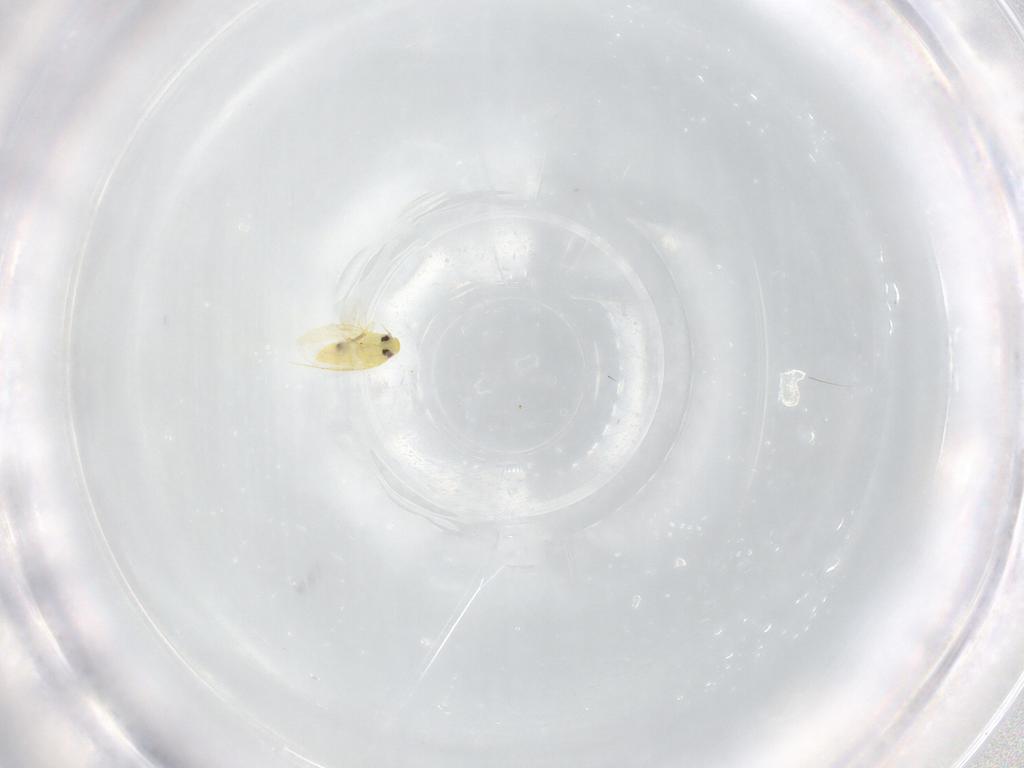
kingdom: Animalia
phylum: Arthropoda
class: Insecta
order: Hemiptera
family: Aleyrodidae
